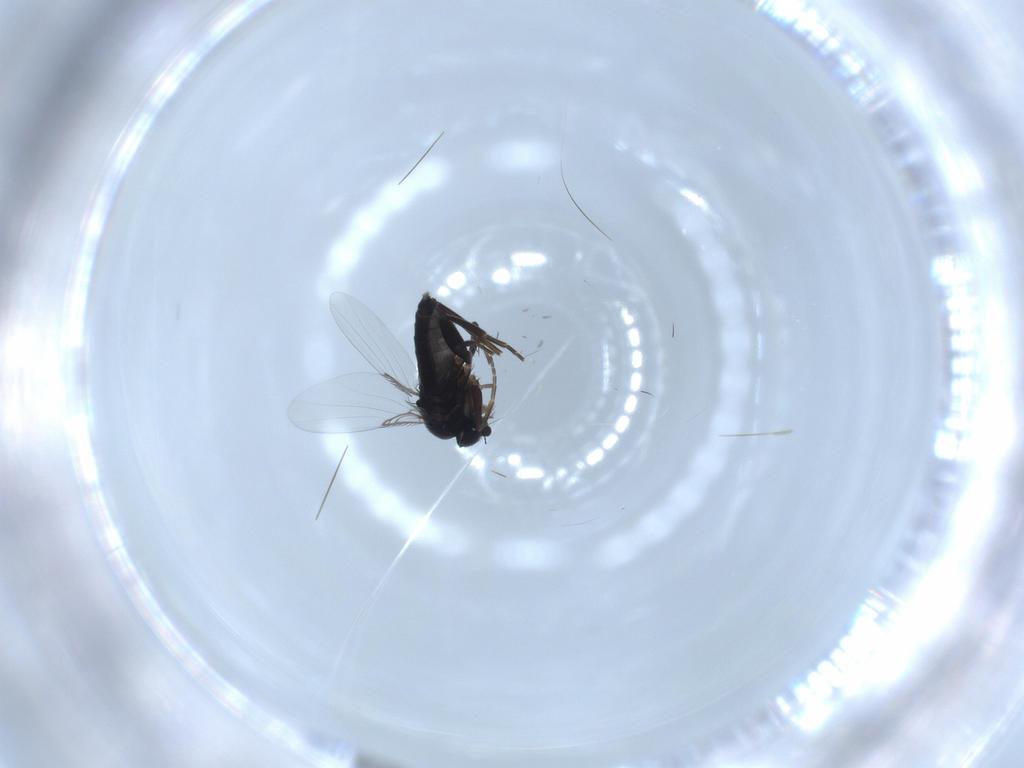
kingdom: Animalia
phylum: Arthropoda
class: Insecta
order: Diptera
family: Phoridae
